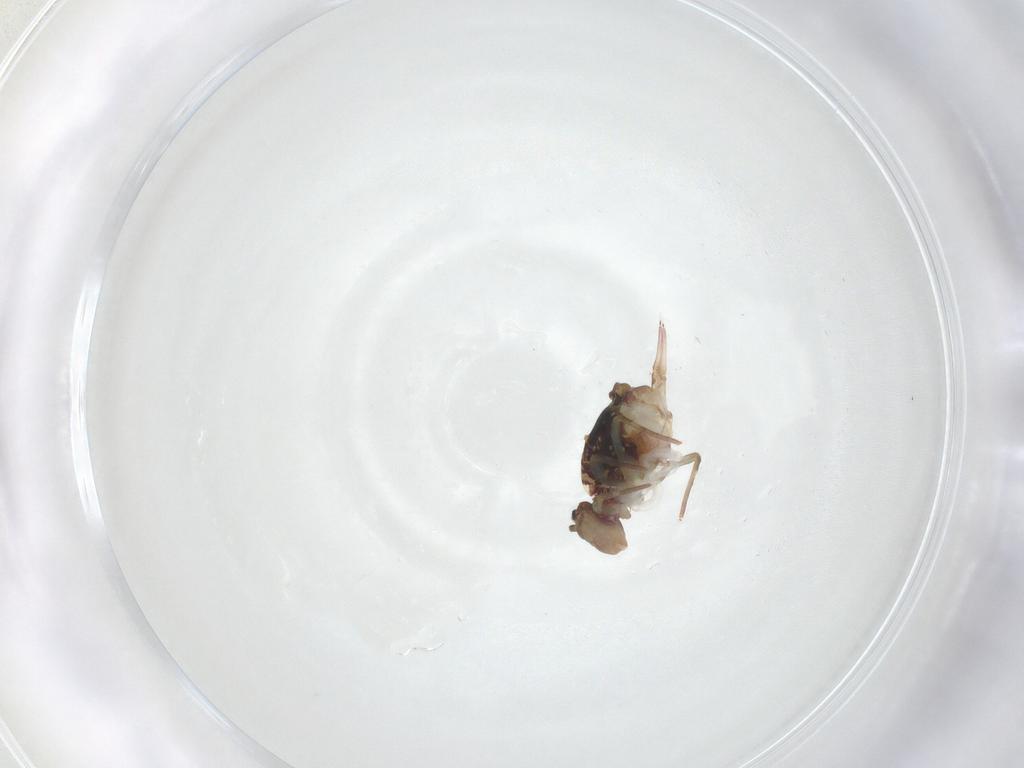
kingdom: Animalia
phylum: Arthropoda
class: Collembola
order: Symphypleona
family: Dicyrtomidae
